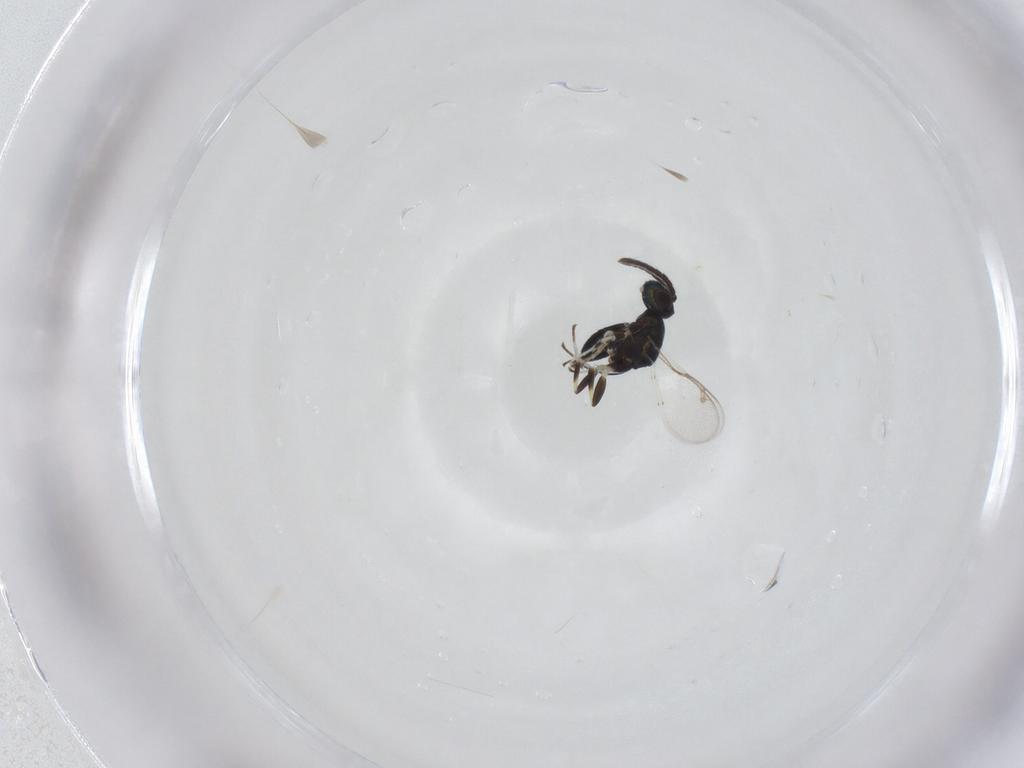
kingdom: Animalia
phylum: Arthropoda
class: Insecta
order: Hymenoptera
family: Eupelmidae
